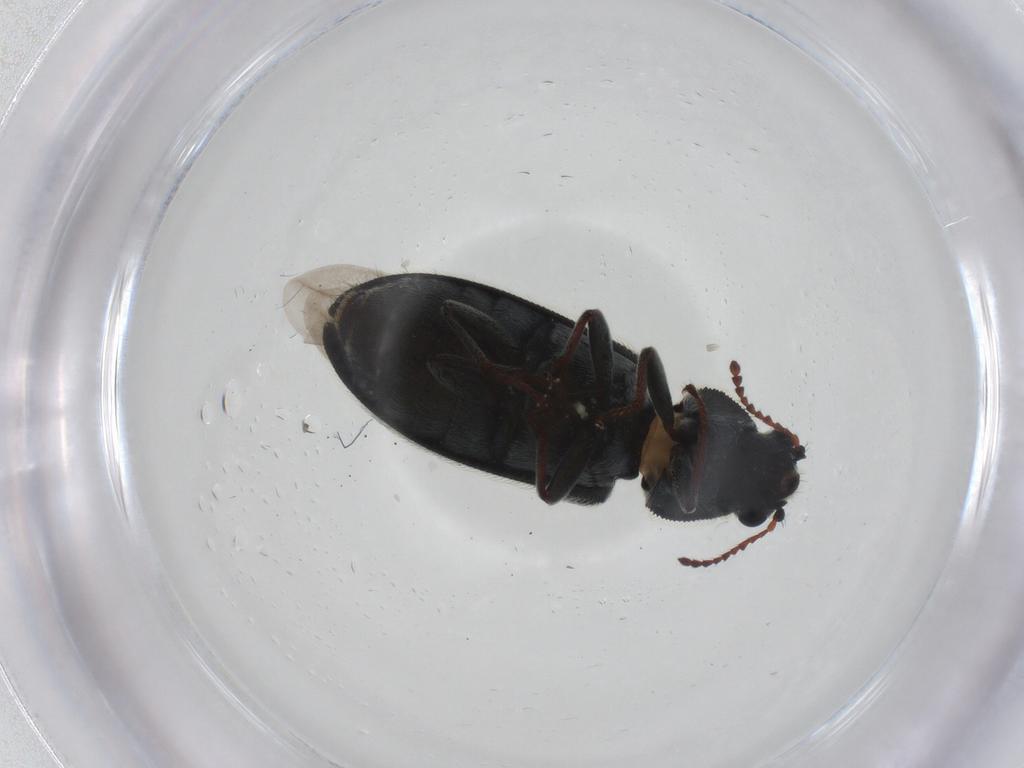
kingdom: Animalia
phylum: Arthropoda
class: Insecta
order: Coleoptera
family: Melyridae
